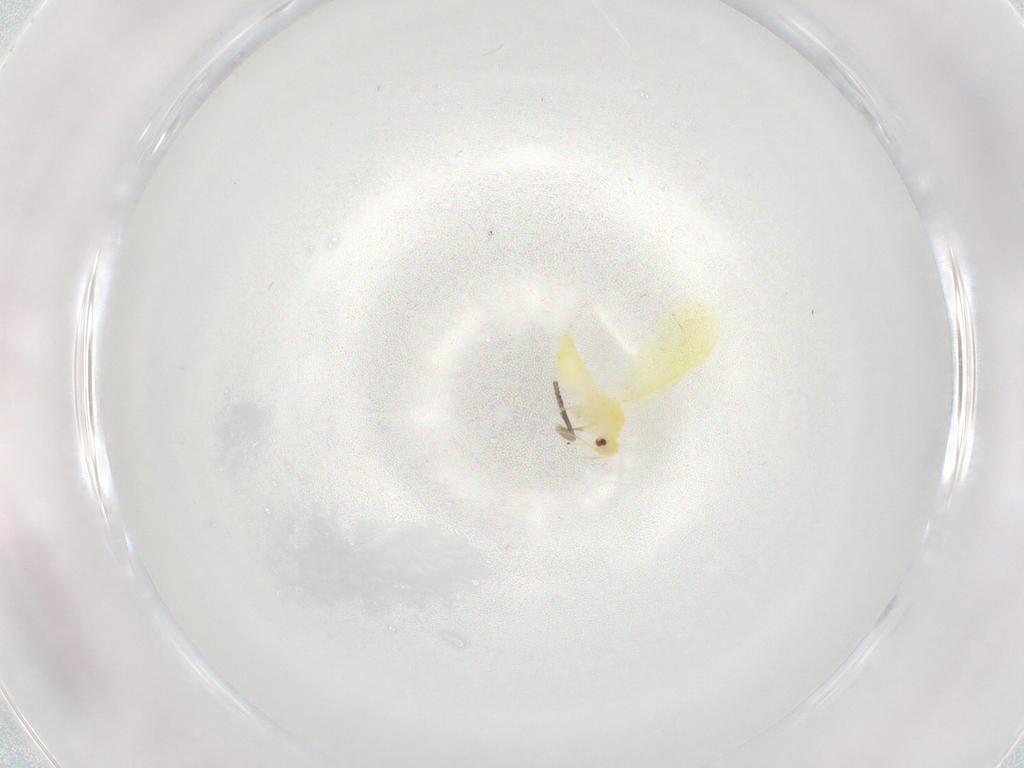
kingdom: Animalia
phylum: Arthropoda
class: Insecta
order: Hemiptera
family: Aleyrodidae
